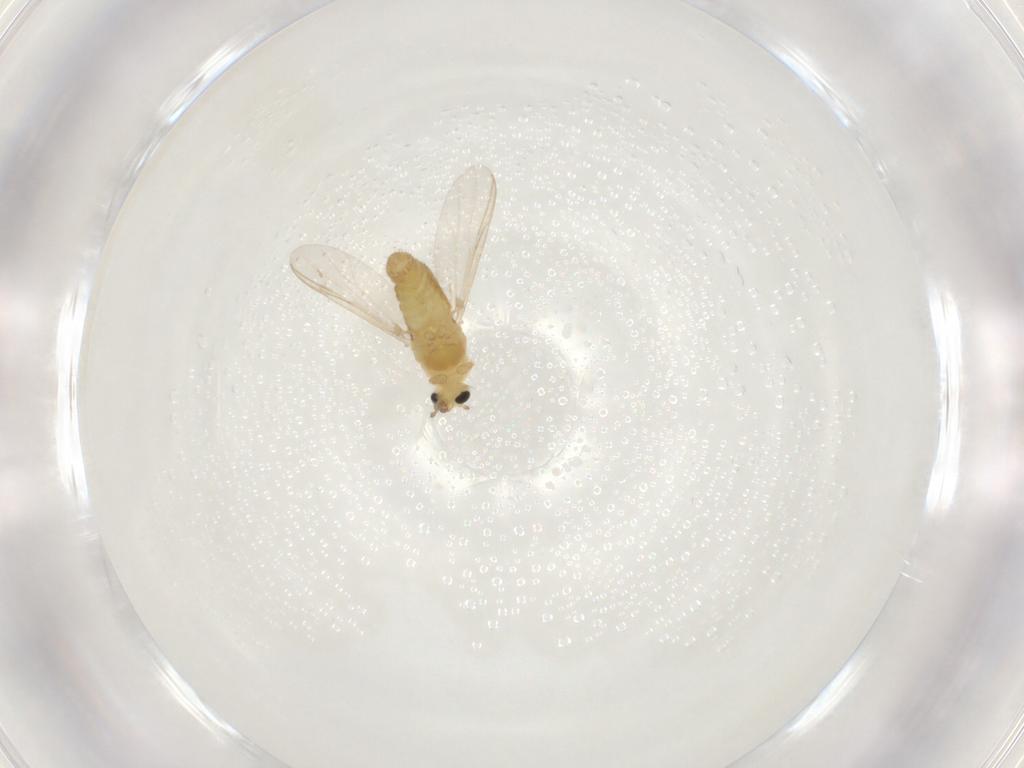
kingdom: Animalia
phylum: Arthropoda
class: Insecta
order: Diptera
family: Chironomidae
